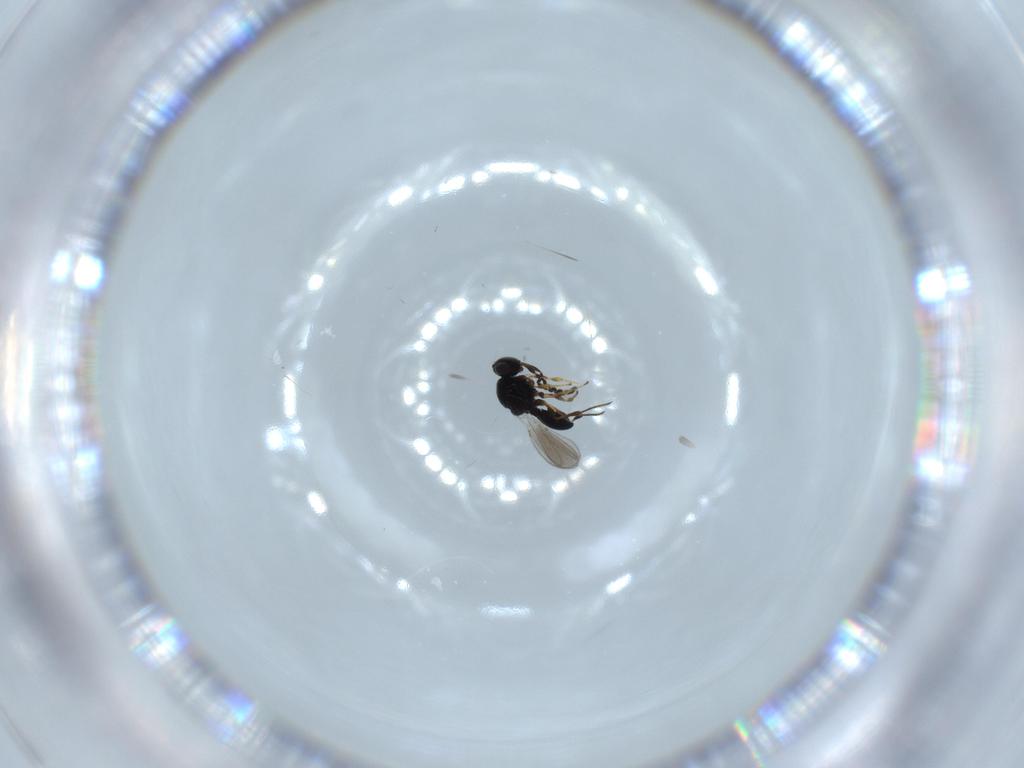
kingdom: Animalia
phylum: Arthropoda
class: Insecta
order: Hymenoptera
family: Platygastridae
